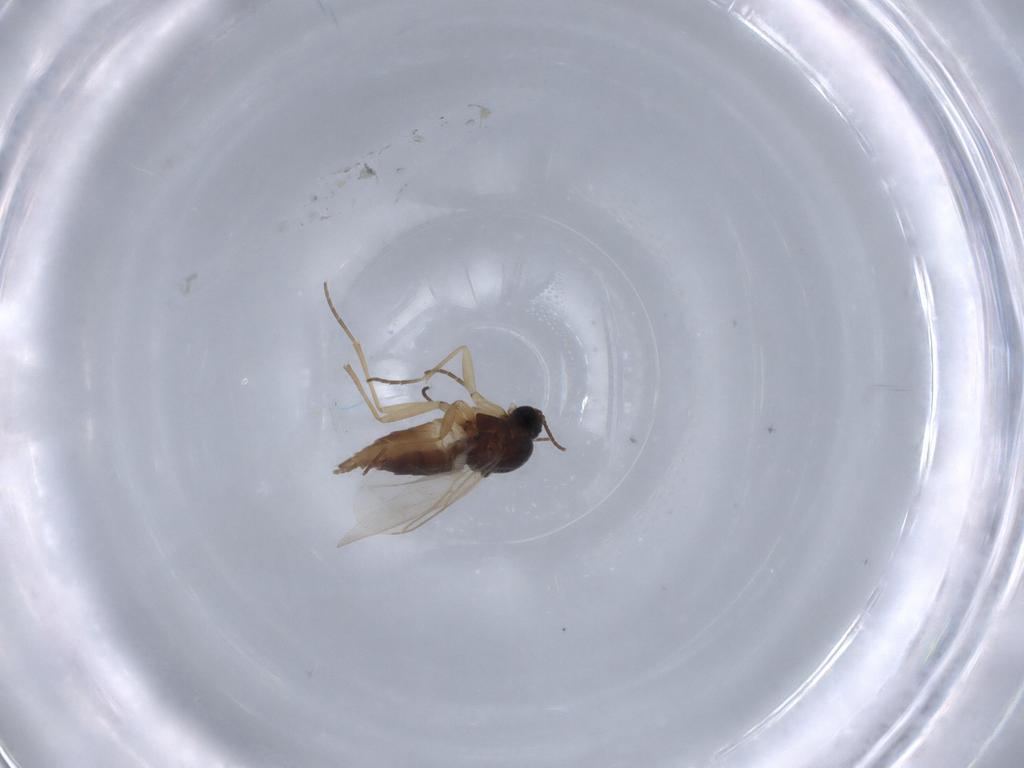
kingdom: Animalia
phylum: Arthropoda
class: Insecta
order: Diptera
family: Sciaridae
